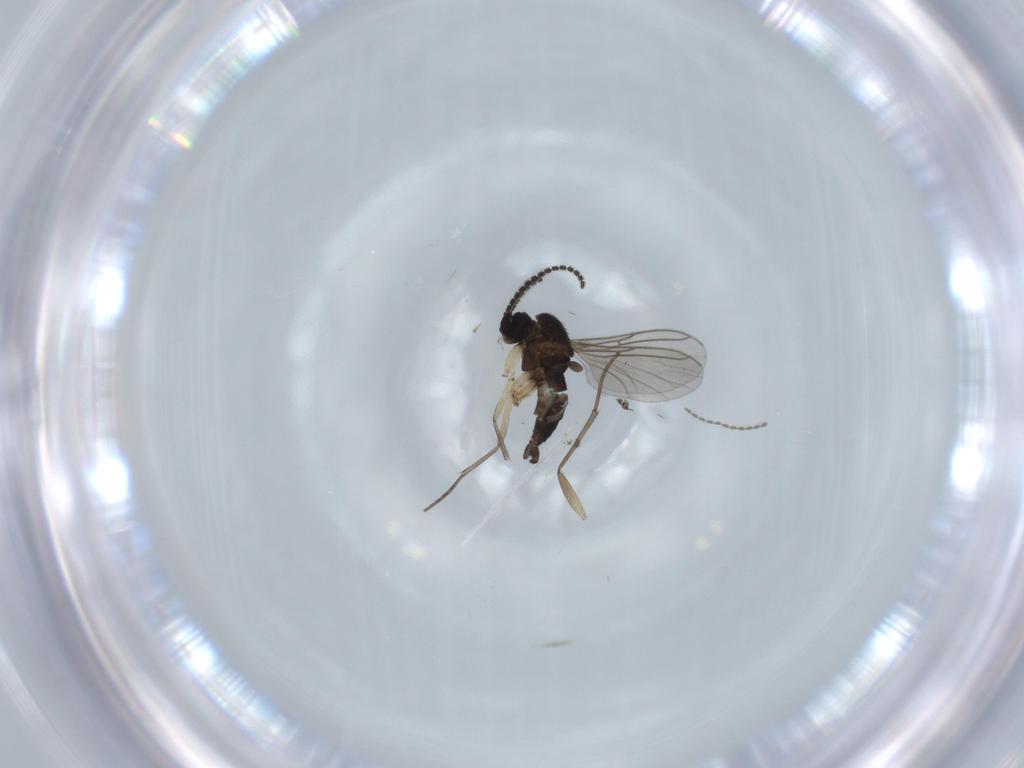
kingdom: Animalia
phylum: Arthropoda
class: Insecta
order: Diptera
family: Sciaridae
